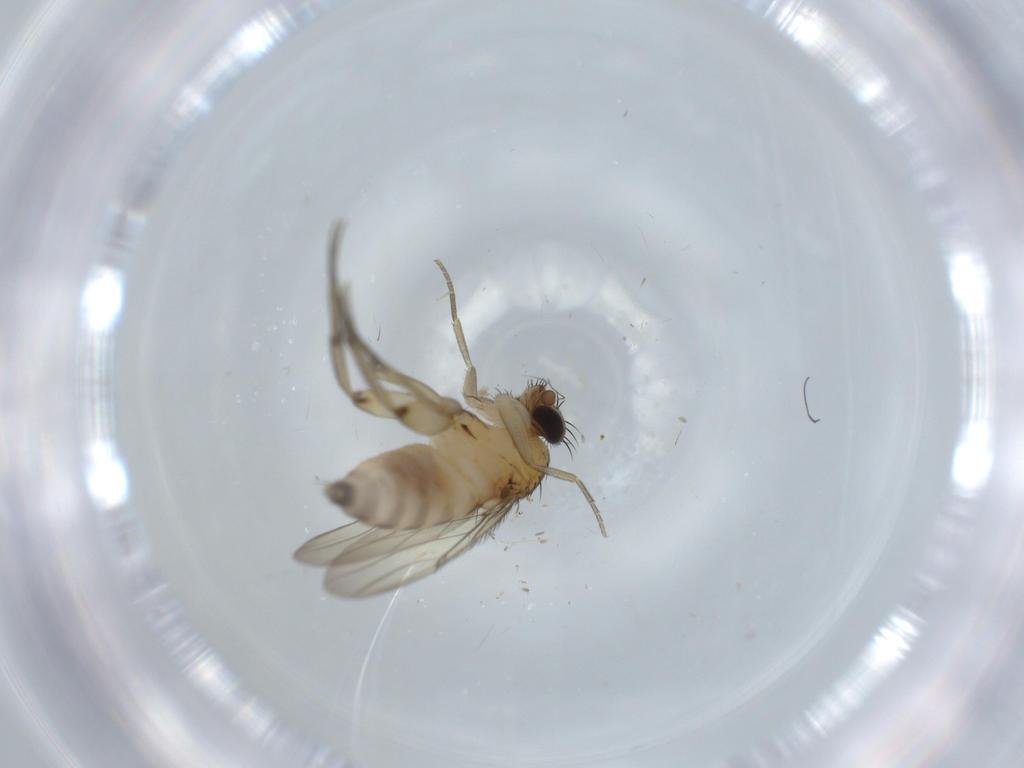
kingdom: Animalia
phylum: Arthropoda
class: Insecta
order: Diptera
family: Phoridae
